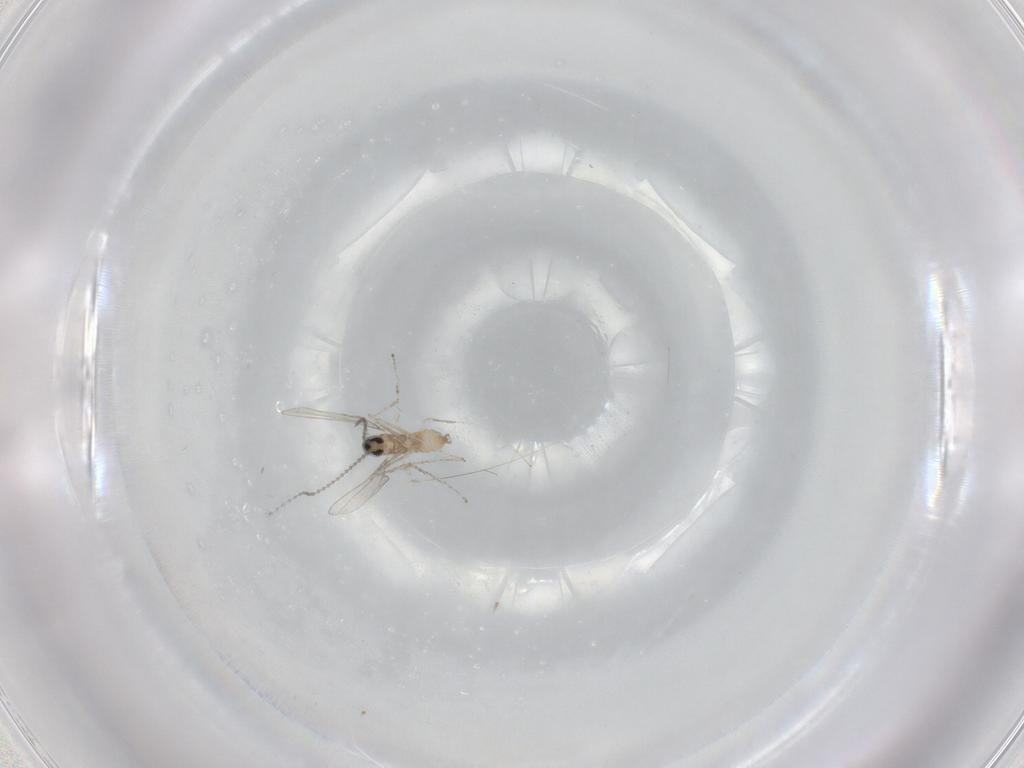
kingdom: Animalia
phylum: Arthropoda
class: Insecta
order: Diptera
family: Cecidomyiidae
